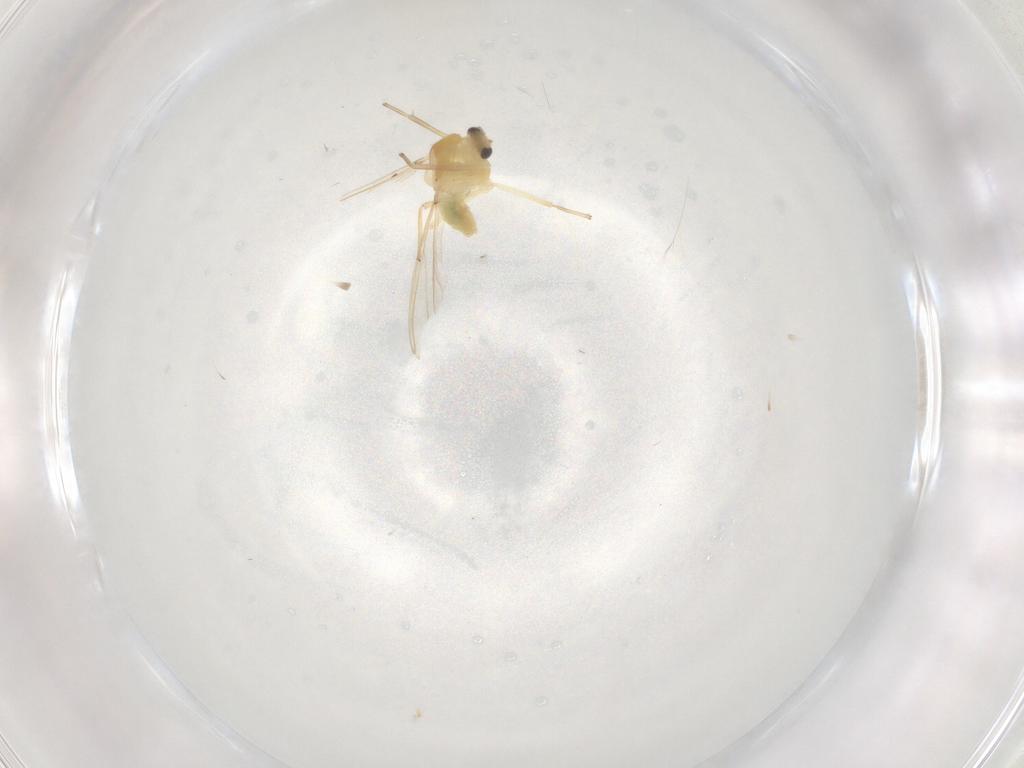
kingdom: Animalia
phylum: Arthropoda
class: Insecta
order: Diptera
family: Chironomidae
